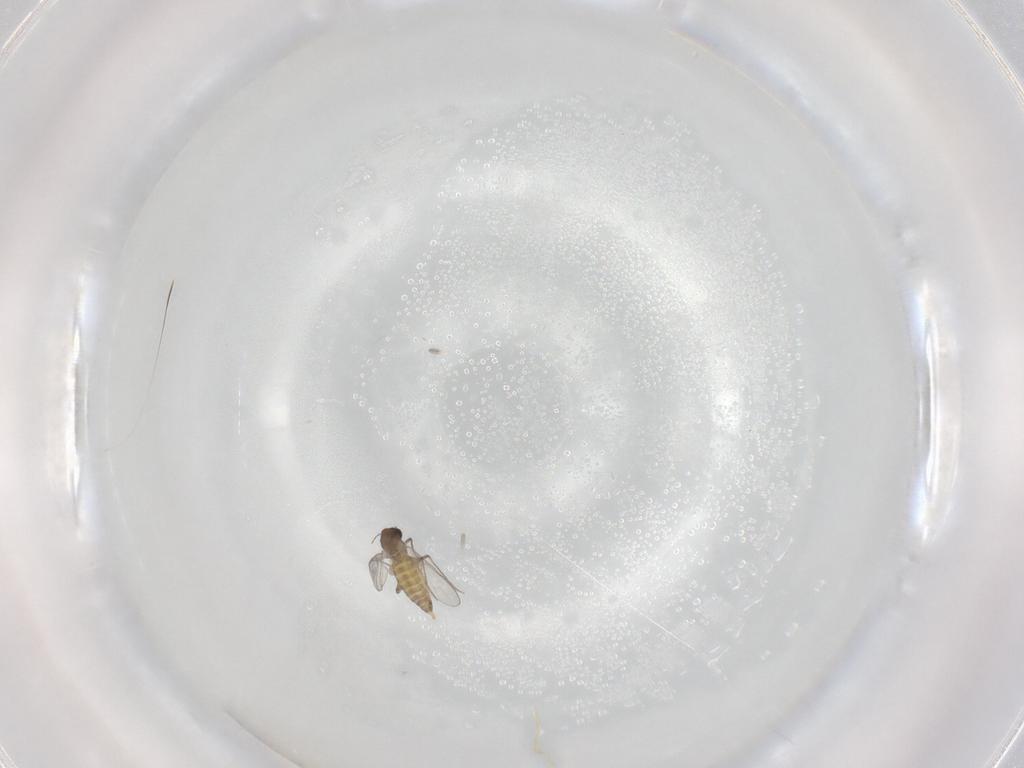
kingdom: Animalia
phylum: Arthropoda
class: Insecta
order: Diptera
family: Chironomidae
